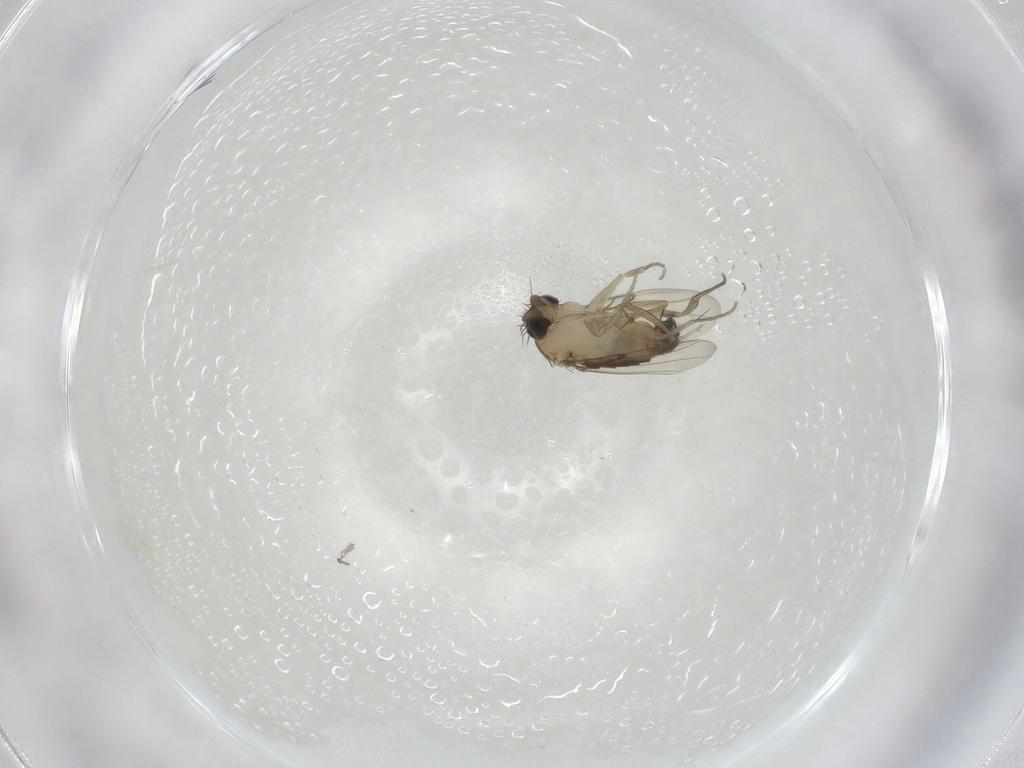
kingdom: Animalia
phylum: Arthropoda
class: Insecta
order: Diptera
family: Phoridae
